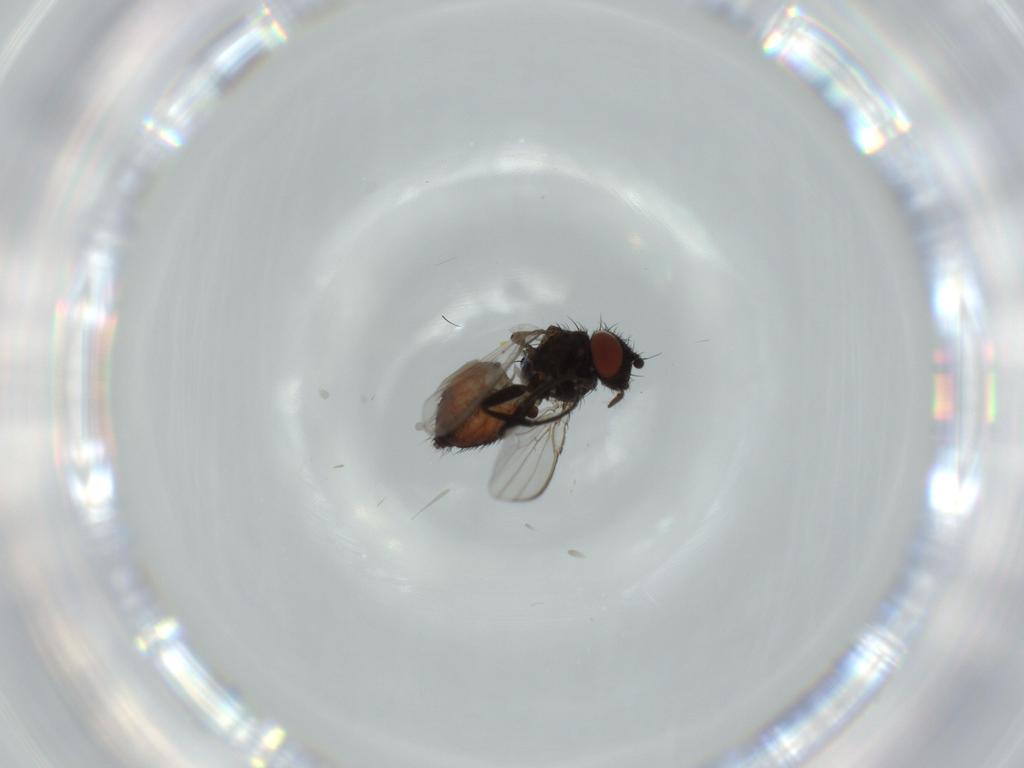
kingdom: Animalia
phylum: Arthropoda
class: Insecta
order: Diptera
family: Milichiidae
